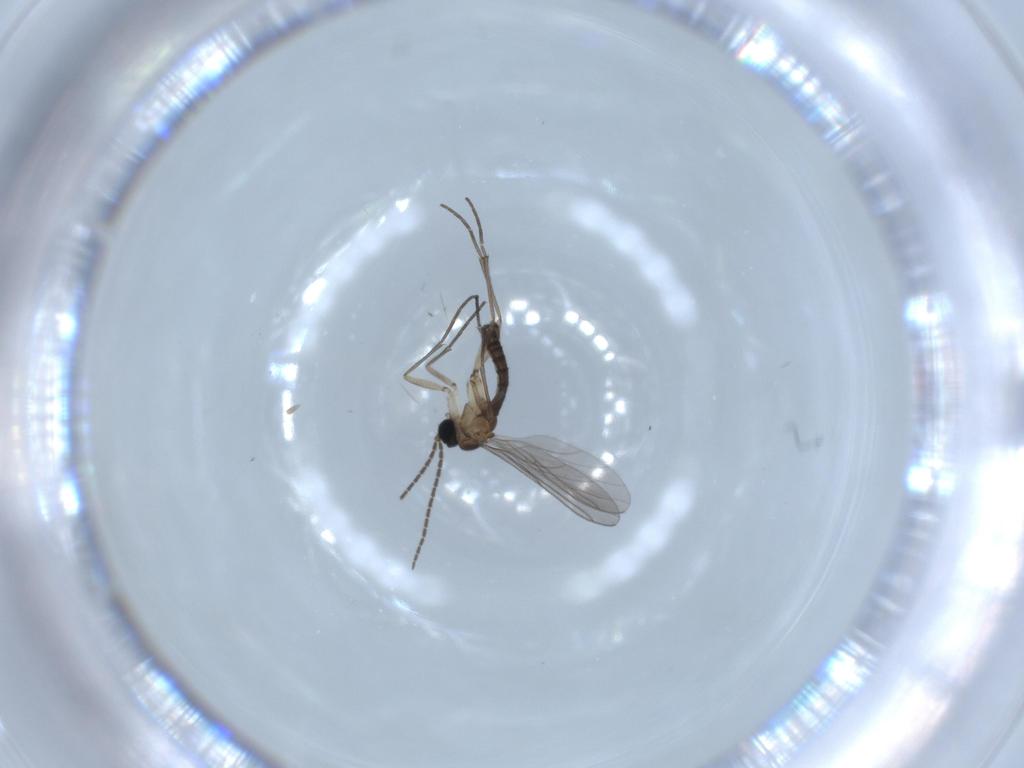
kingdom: Animalia
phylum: Arthropoda
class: Insecta
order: Diptera
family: Sciaridae
